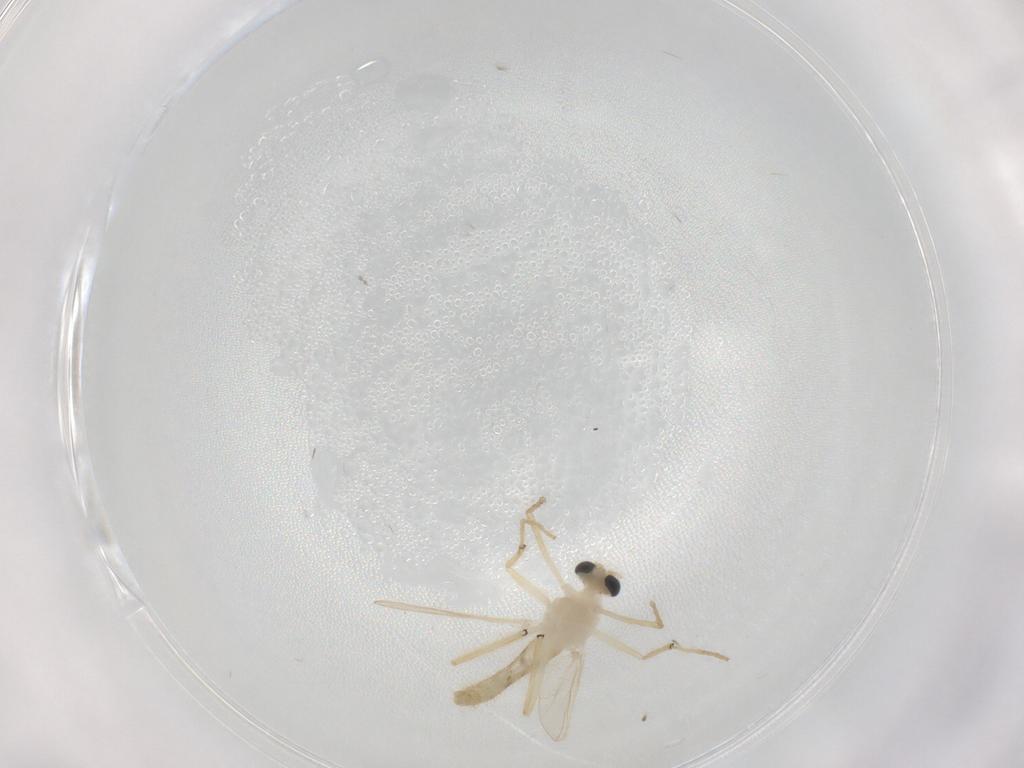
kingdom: Animalia
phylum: Arthropoda
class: Insecta
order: Diptera
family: Chironomidae
